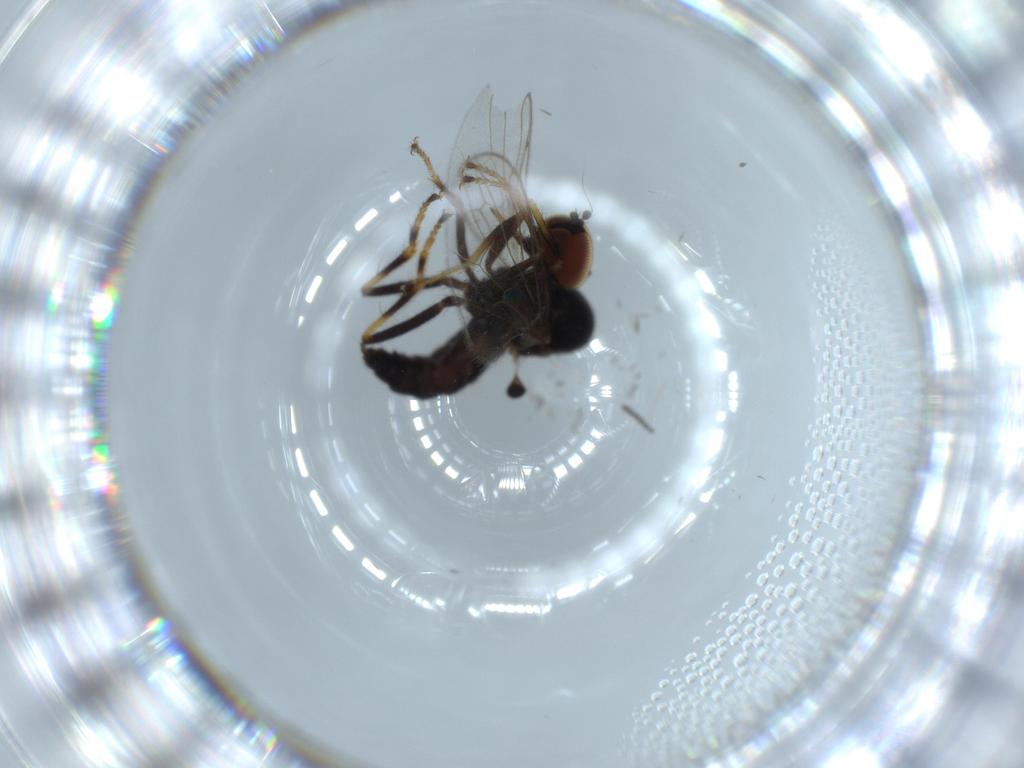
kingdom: Animalia
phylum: Arthropoda
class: Insecta
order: Diptera
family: Hybotidae
